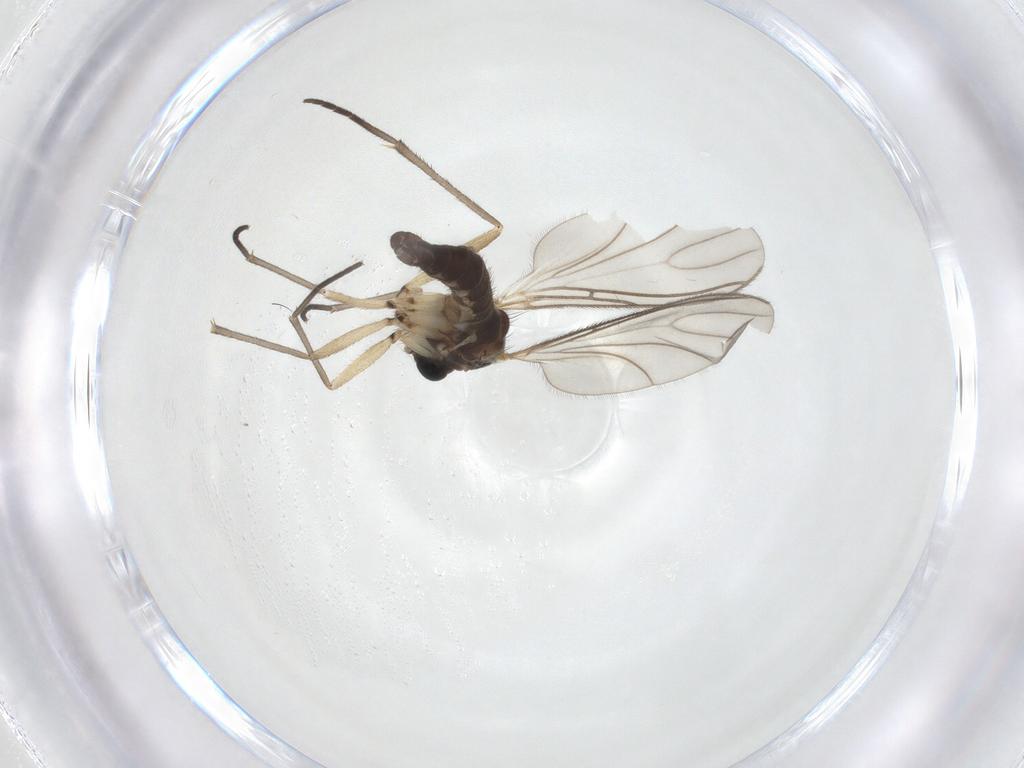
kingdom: Animalia
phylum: Arthropoda
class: Insecta
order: Diptera
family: Sciaridae
